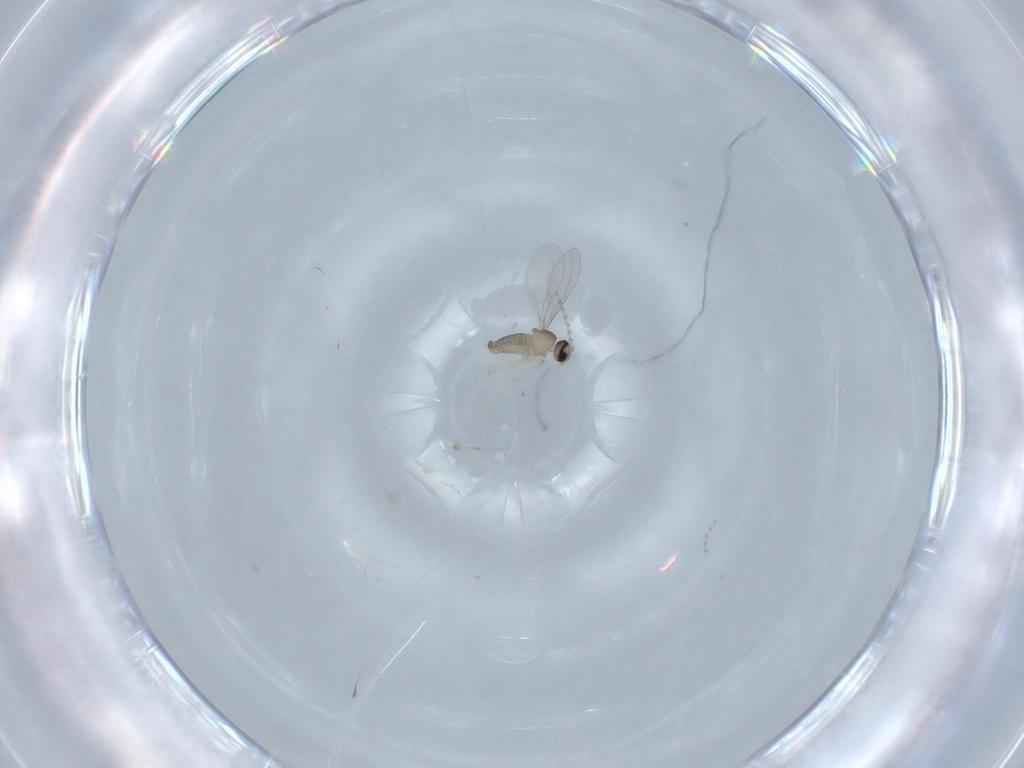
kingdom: Animalia
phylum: Arthropoda
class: Insecta
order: Diptera
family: Cecidomyiidae
